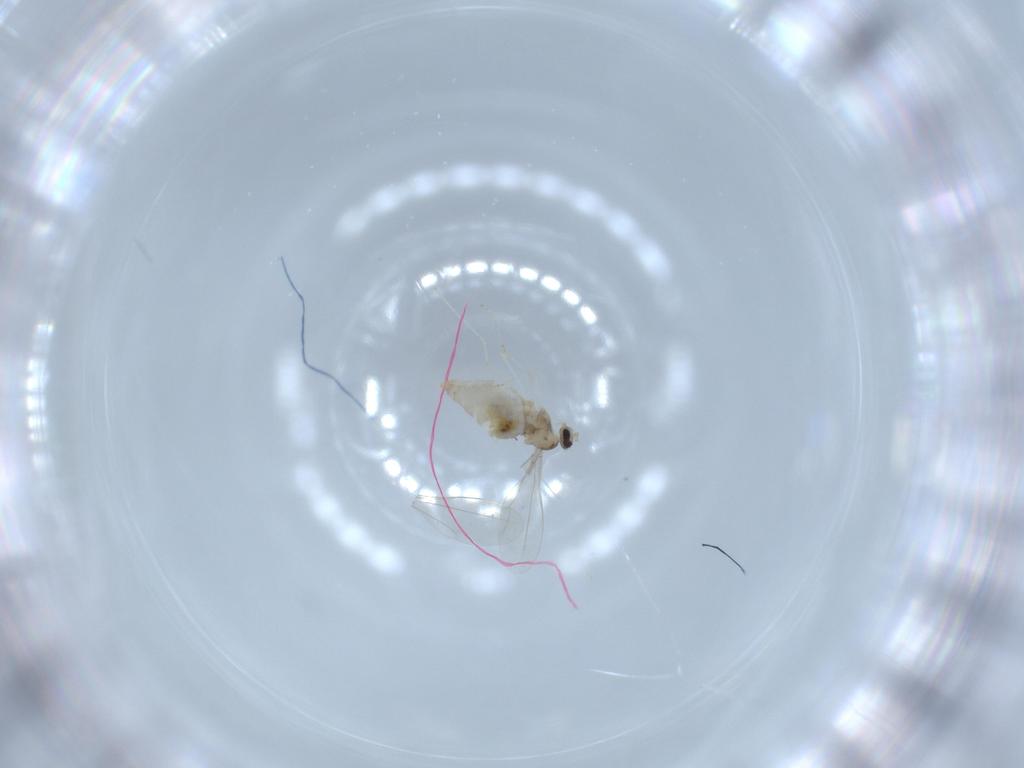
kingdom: Animalia
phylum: Arthropoda
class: Insecta
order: Diptera
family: Cecidomyiidae
